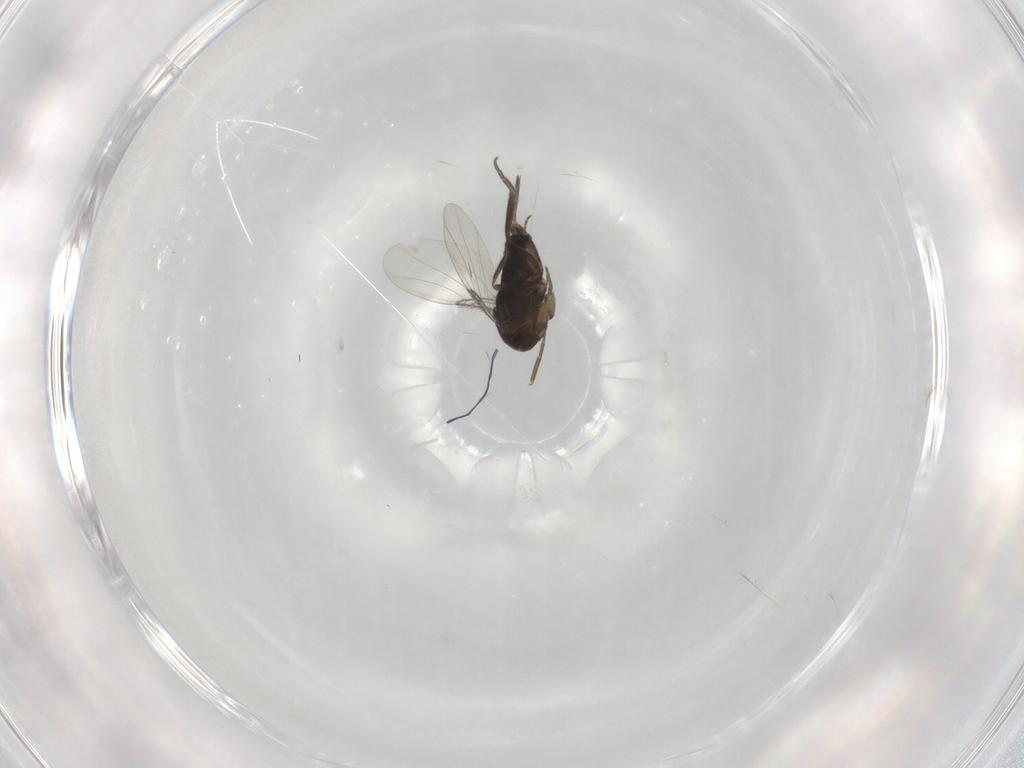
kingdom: Animalia
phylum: Arthropoda
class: Insecta
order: Diptera
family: Phoridae
